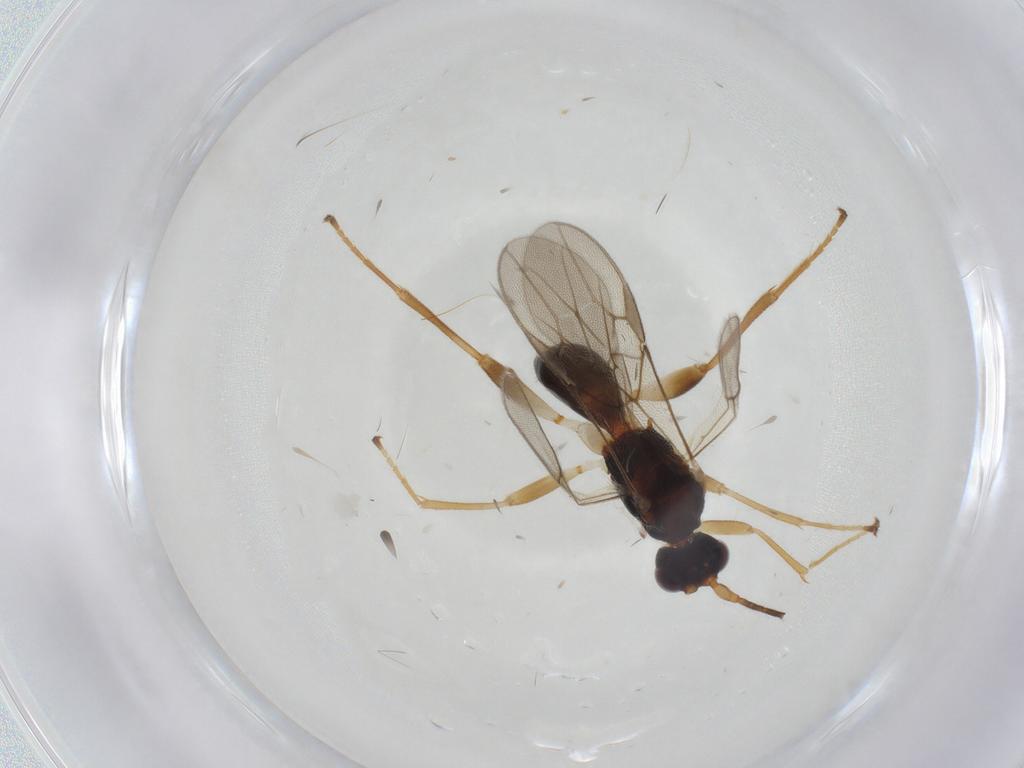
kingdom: Animalia
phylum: Arthropoda
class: Insecta
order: Hymenoptera
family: Braconidae
